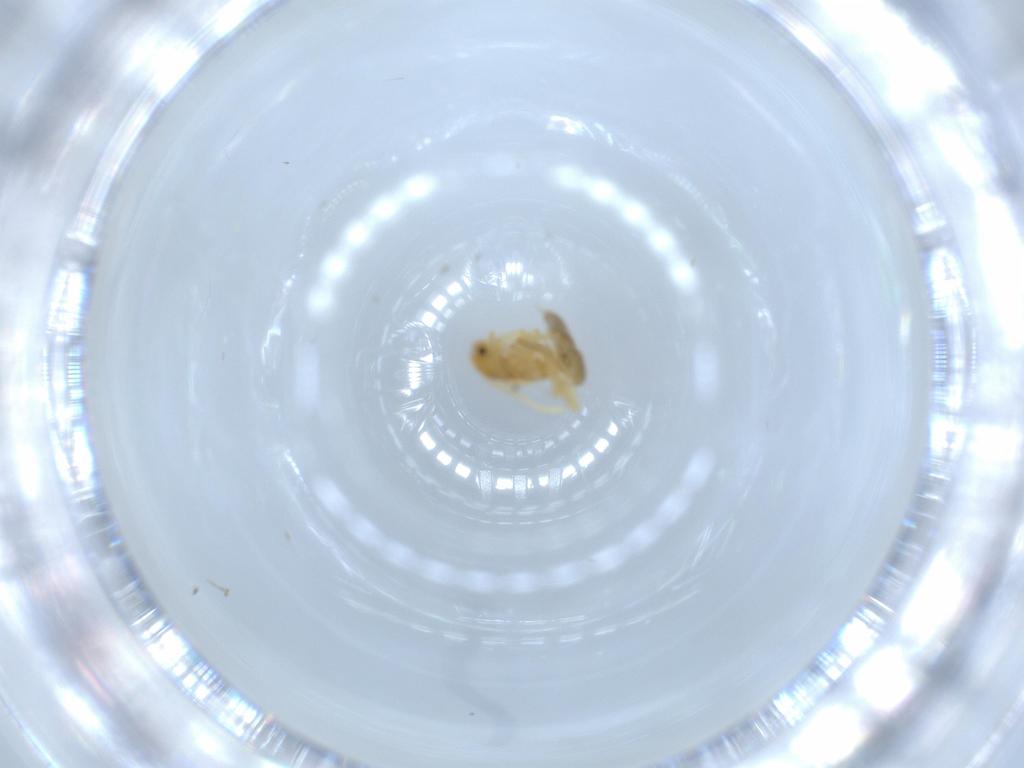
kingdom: Animalia
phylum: Arthropoda
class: Insecta
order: Hymenoptera
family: Formicidae
